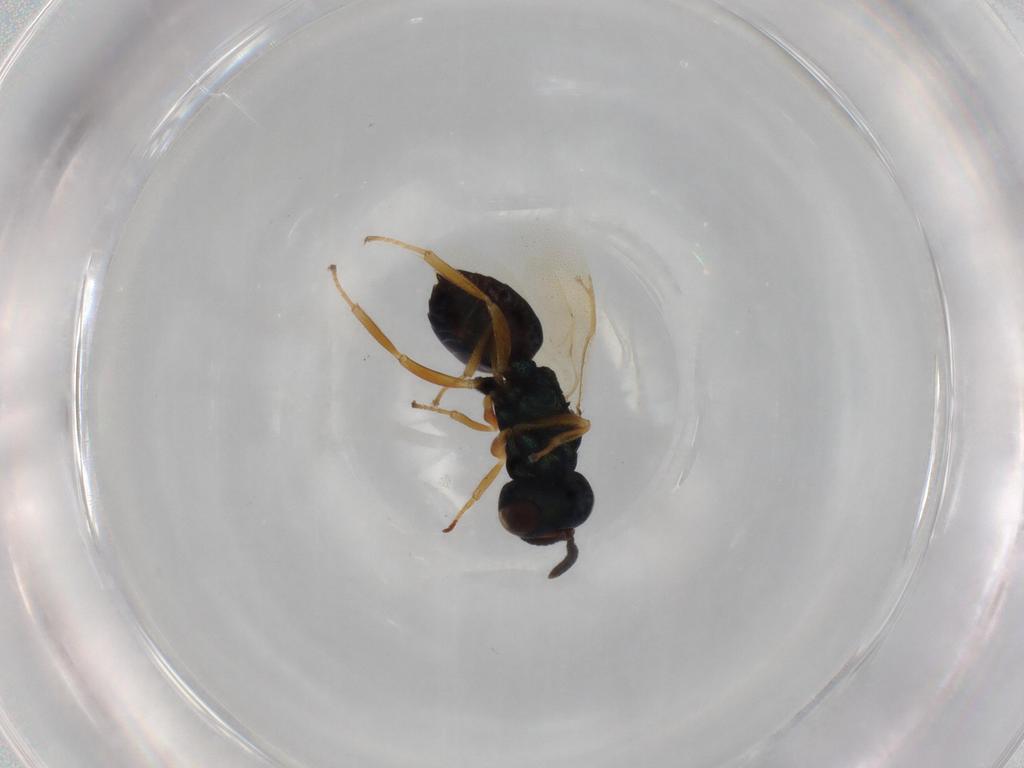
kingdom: Animalia
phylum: Arthropoda
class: Insecta
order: Hymenoptera
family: Pteromalidae
